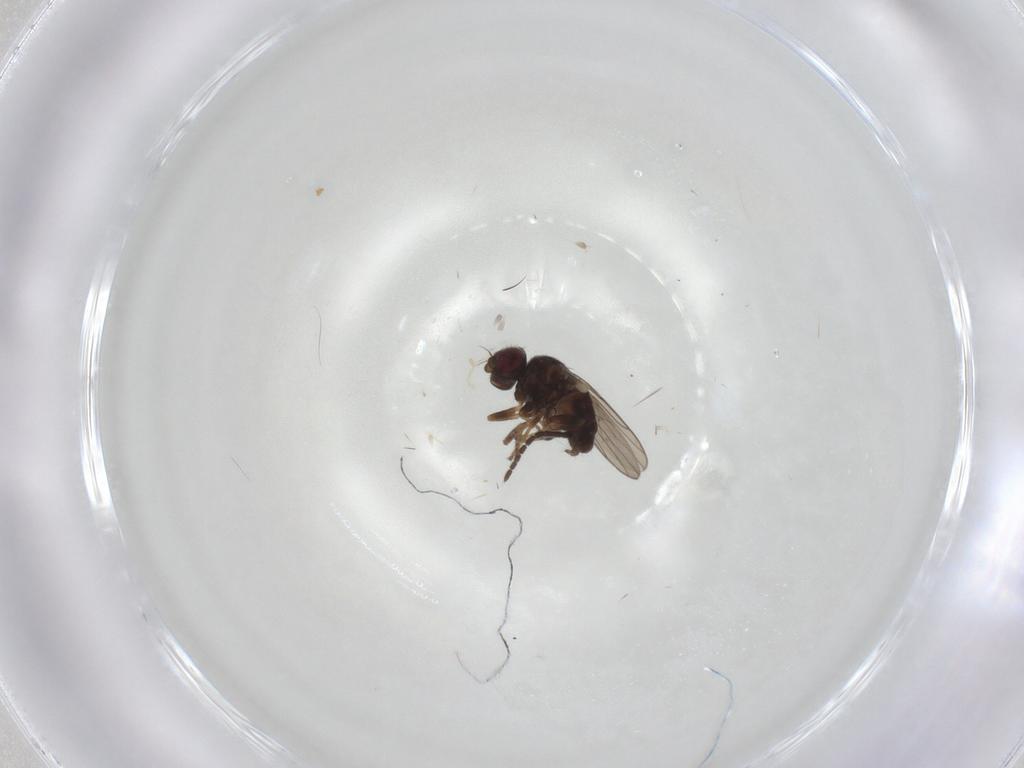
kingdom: Animalia
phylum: Arthropoda
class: Insecta
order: Diptera
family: Chloropidae
